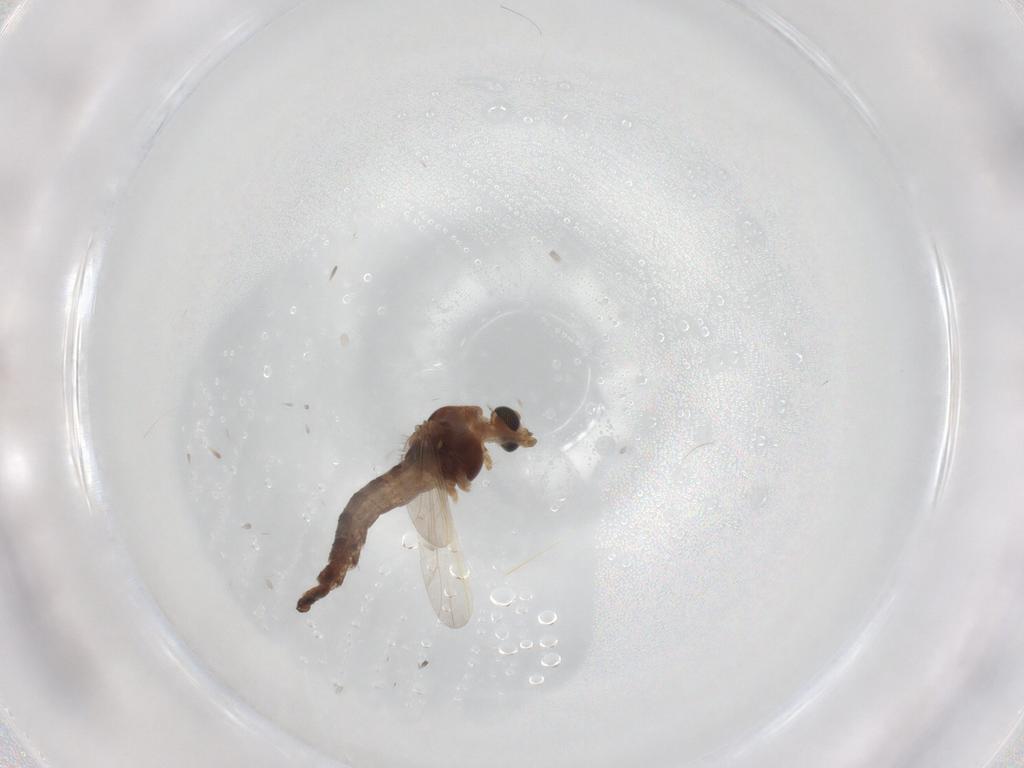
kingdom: Animalia
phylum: Arthropoda
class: Insecta
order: Diptera
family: Chironomidae
